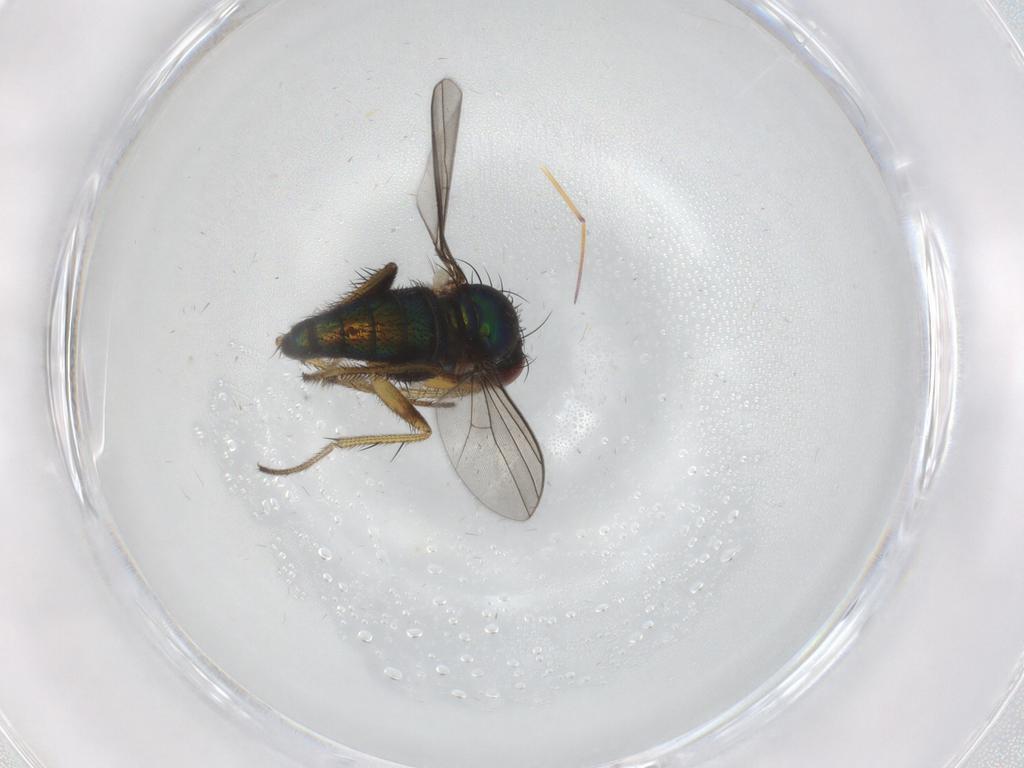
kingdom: Animalia
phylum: Arthropoda
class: Insecta
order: Diptera
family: Dolichopodidae
